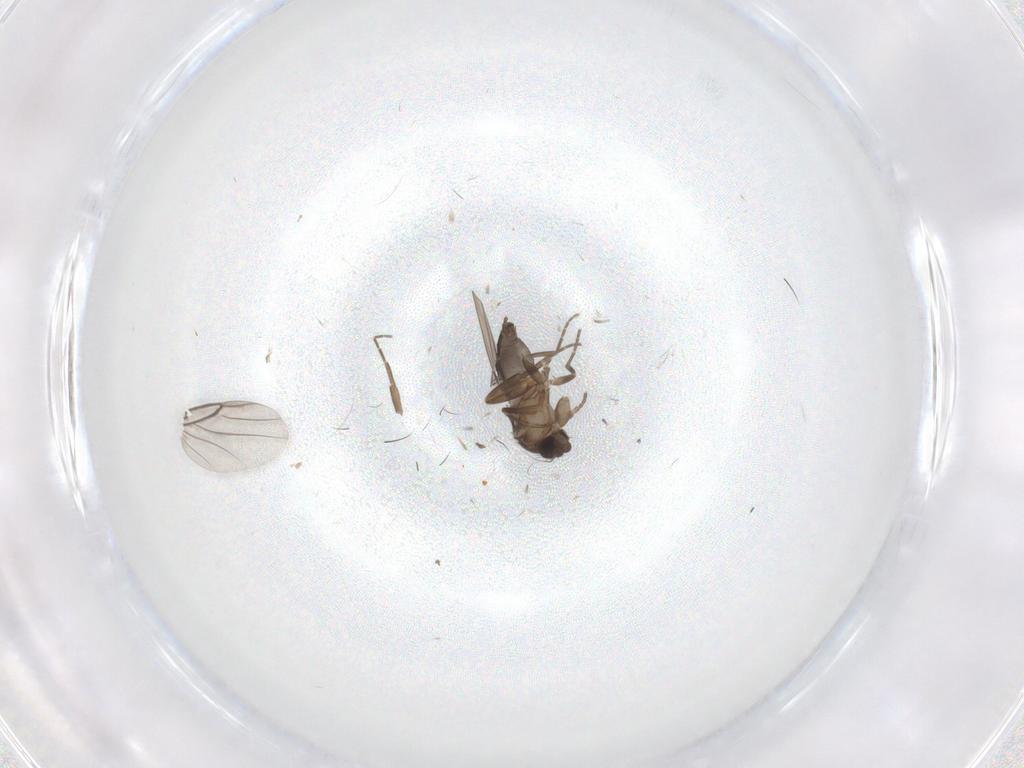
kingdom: Animalia
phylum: Arthropoda
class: Insecta
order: Diptera
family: Cecidomyiidae
